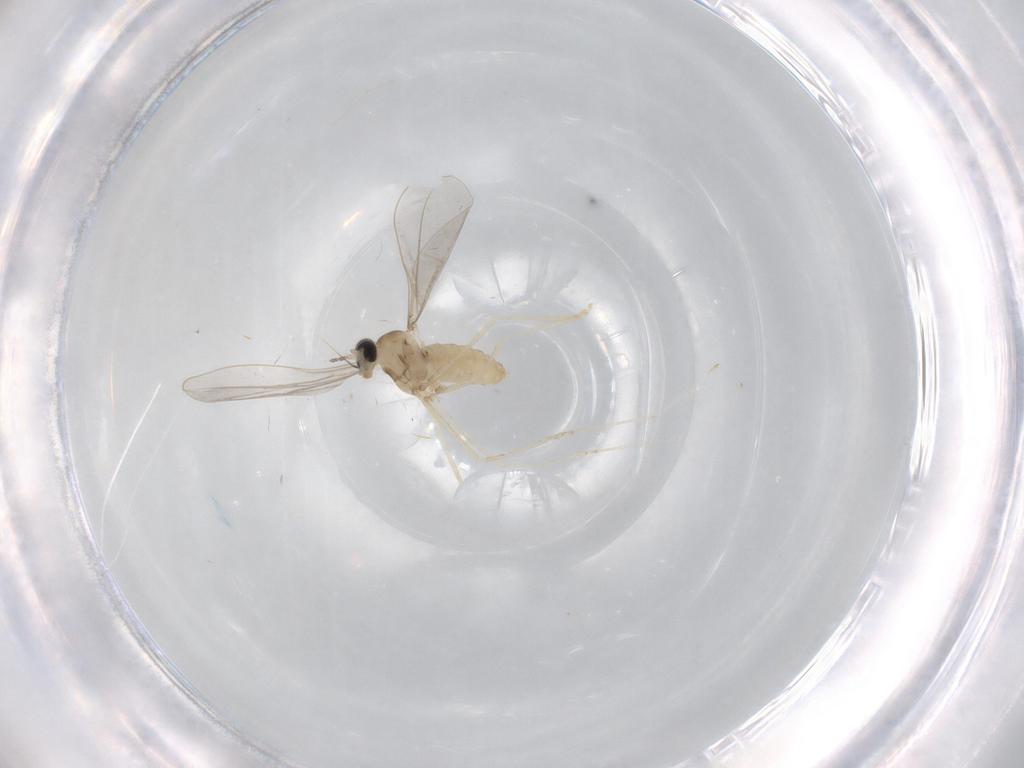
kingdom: Animalia
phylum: Arthropoda
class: Insecta
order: Diptera
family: Cecidomyiidae
